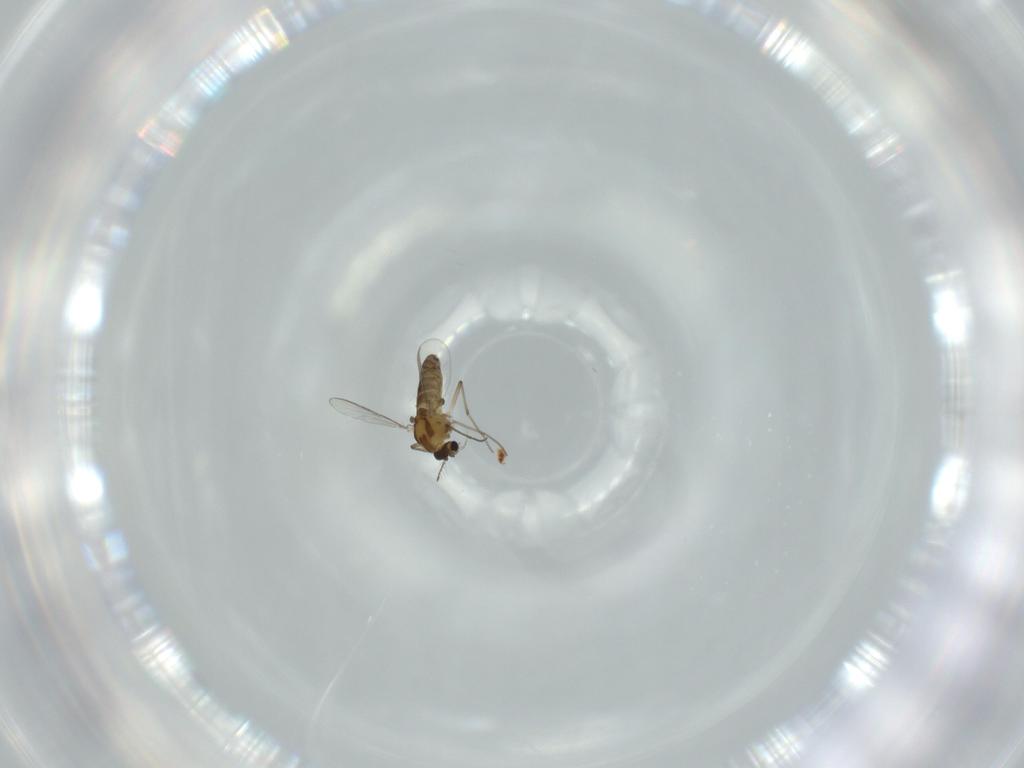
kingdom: Animalia
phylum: Arthropoda
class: Insecta
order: Diptera
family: Chironomidae
